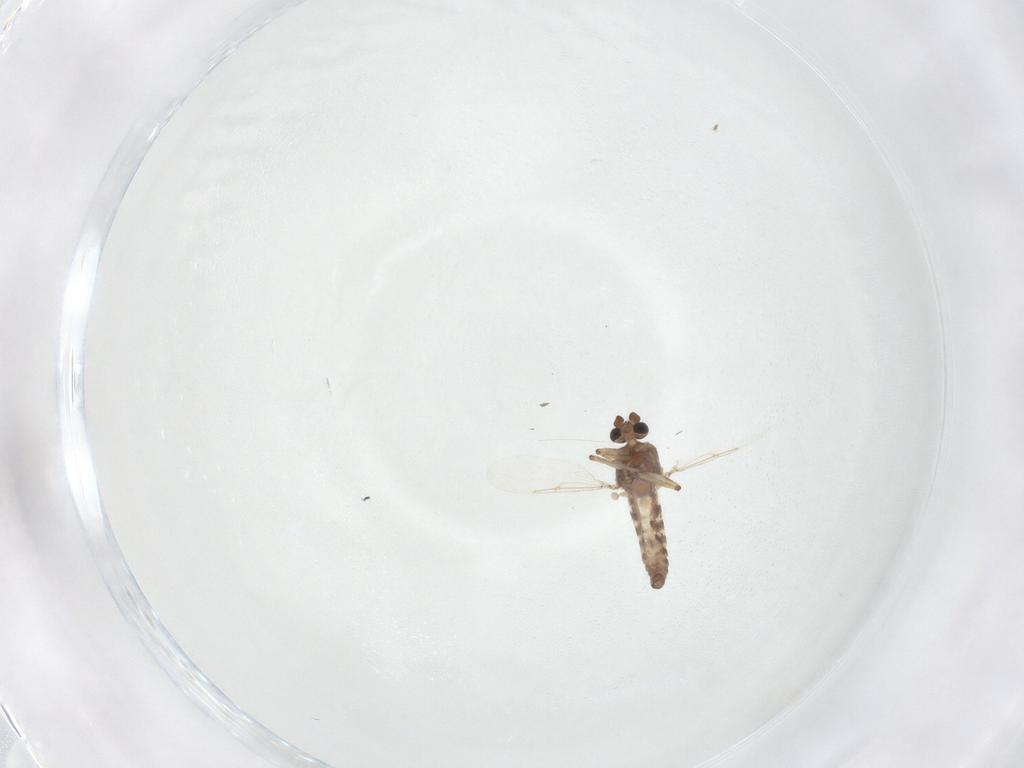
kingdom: Animalia
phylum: Arthropoda
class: Insecta
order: Diptera
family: Ceratopogonidae
